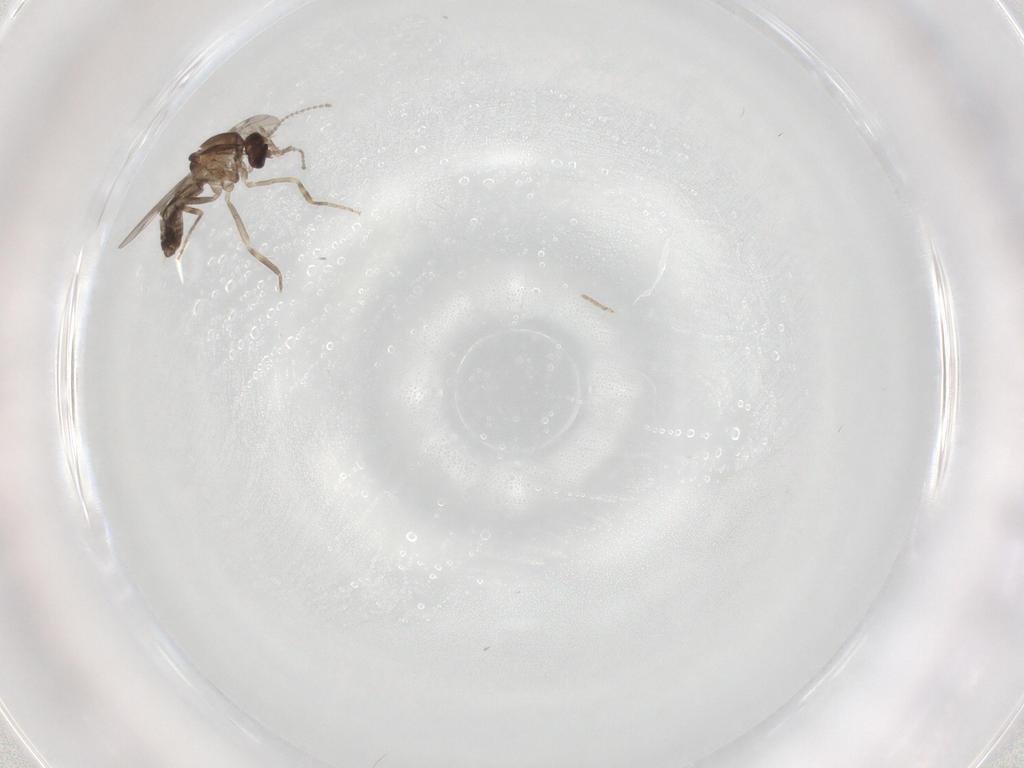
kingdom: Animalia
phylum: Arthropoda
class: Insecta
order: Diptera
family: Ceratopogonidae
